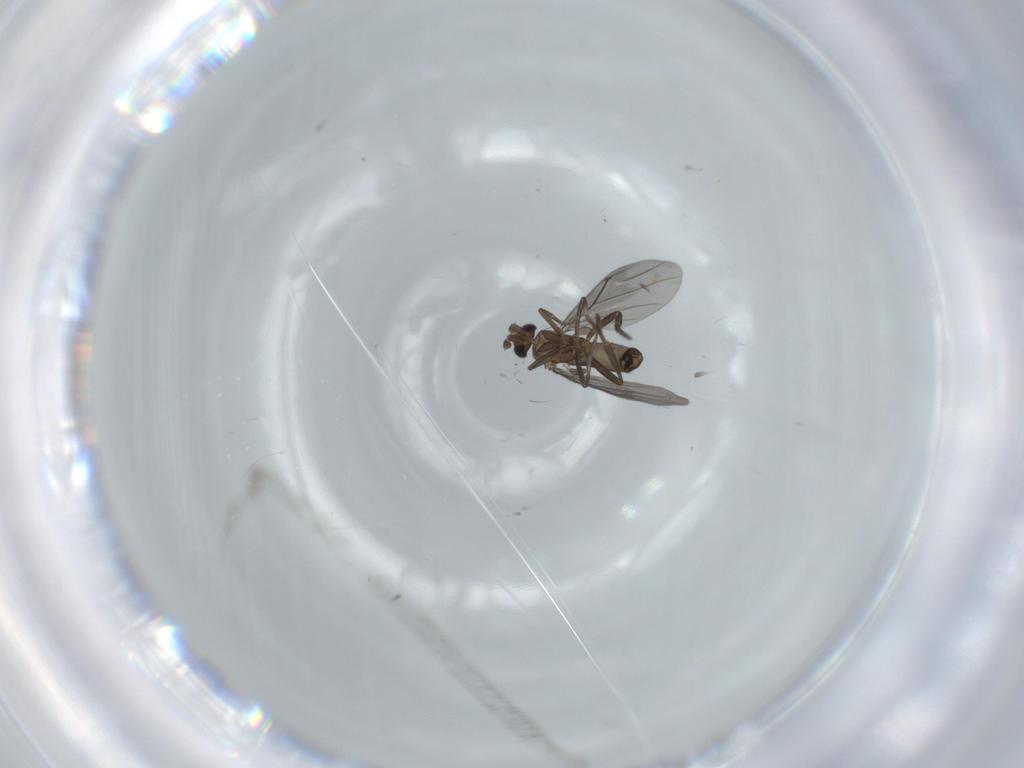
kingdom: Animalia
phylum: Arthropoda
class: Insecta
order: Diptera
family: Phoridae
